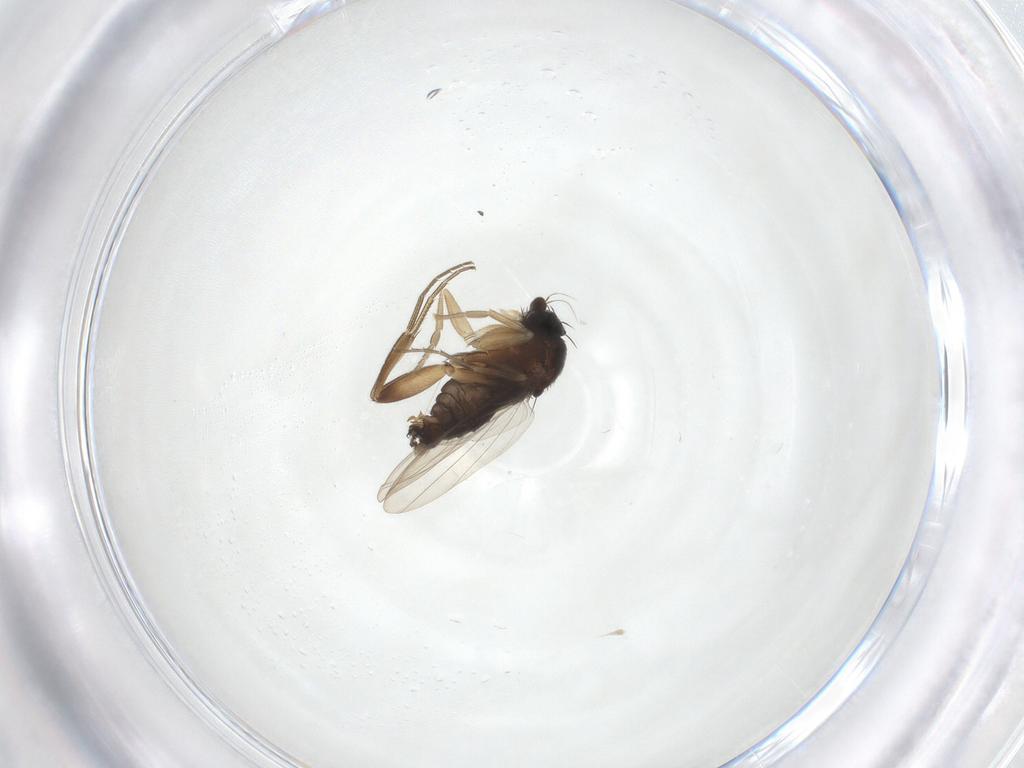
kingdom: Animalia
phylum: Arthropoda
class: Insecta
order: Diptera
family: Phoridae
